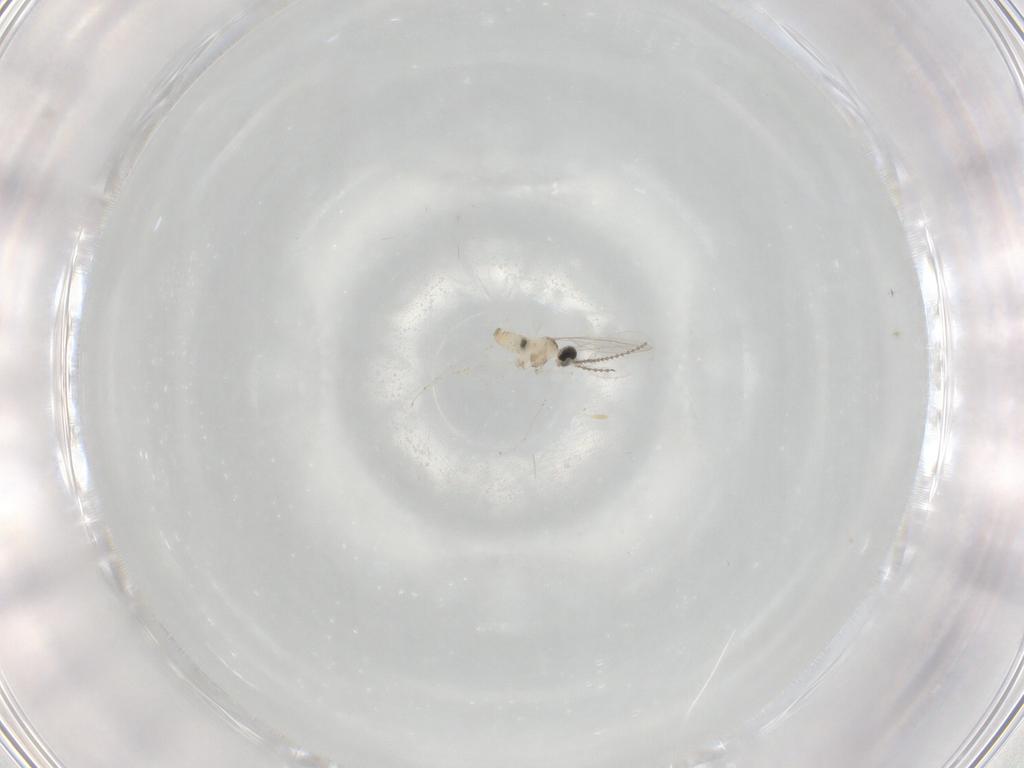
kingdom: Animalia
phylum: Arthropoda
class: Insecta
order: Diptera
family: Cecidomyiidae
